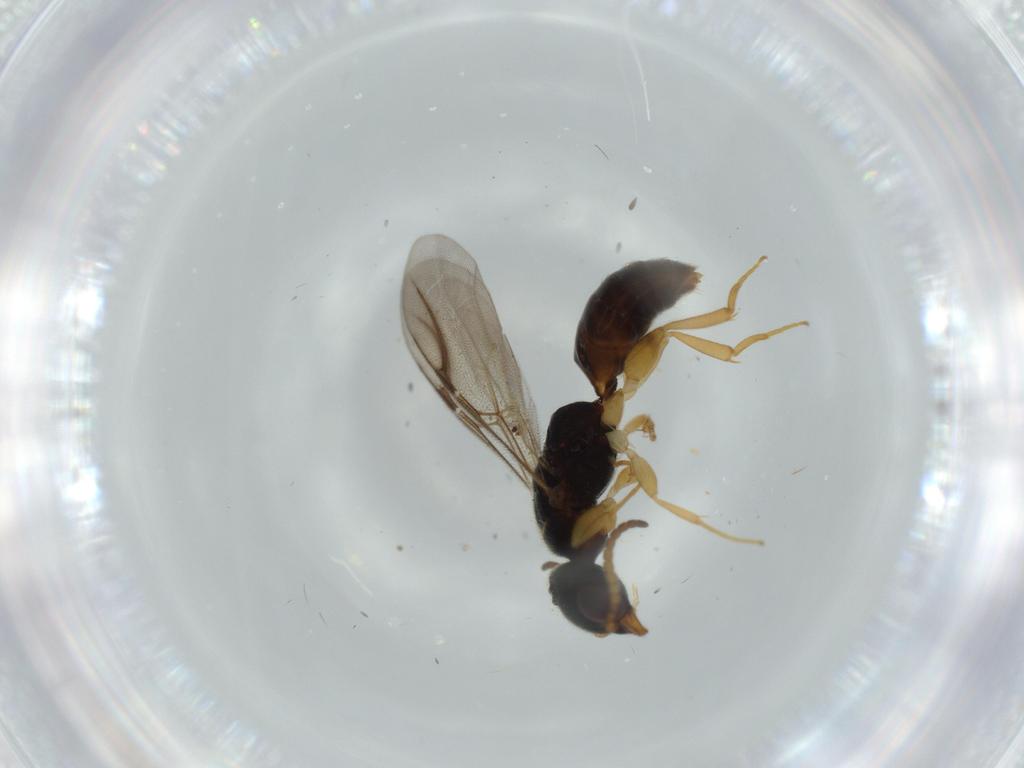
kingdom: Animalia
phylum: Arthropoda
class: Insecta
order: Hymenoptera
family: Bethylidae
